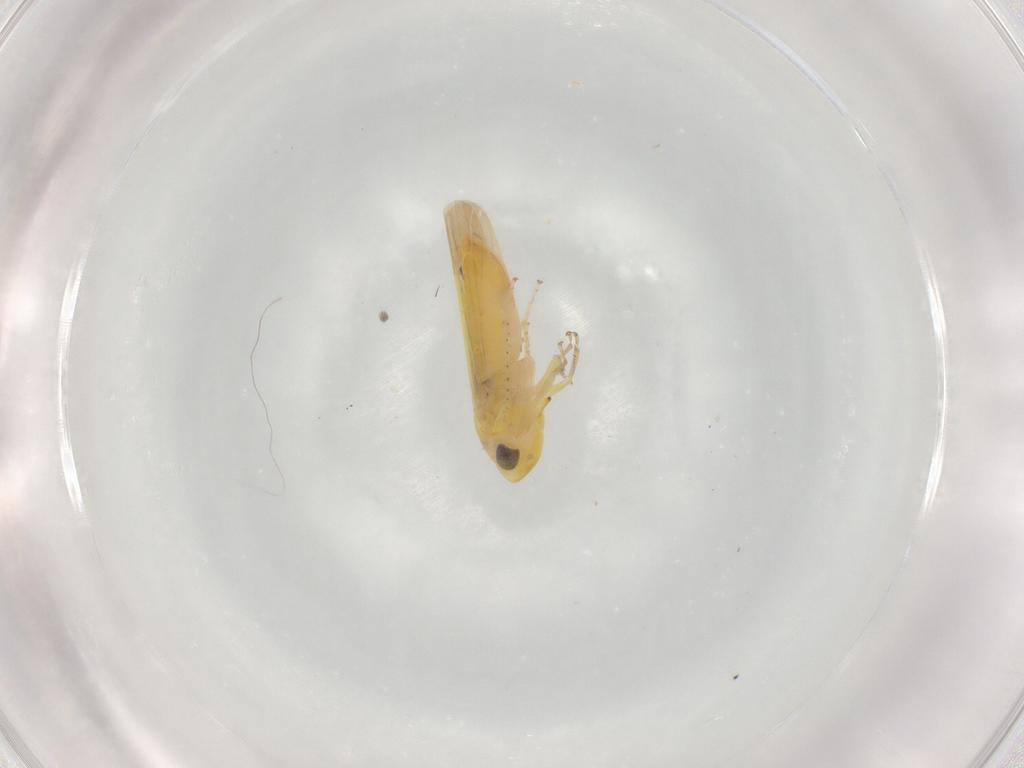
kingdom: Animalia
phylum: Arthropoda
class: Insecta
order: Hemiptera
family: Cicadellidae
